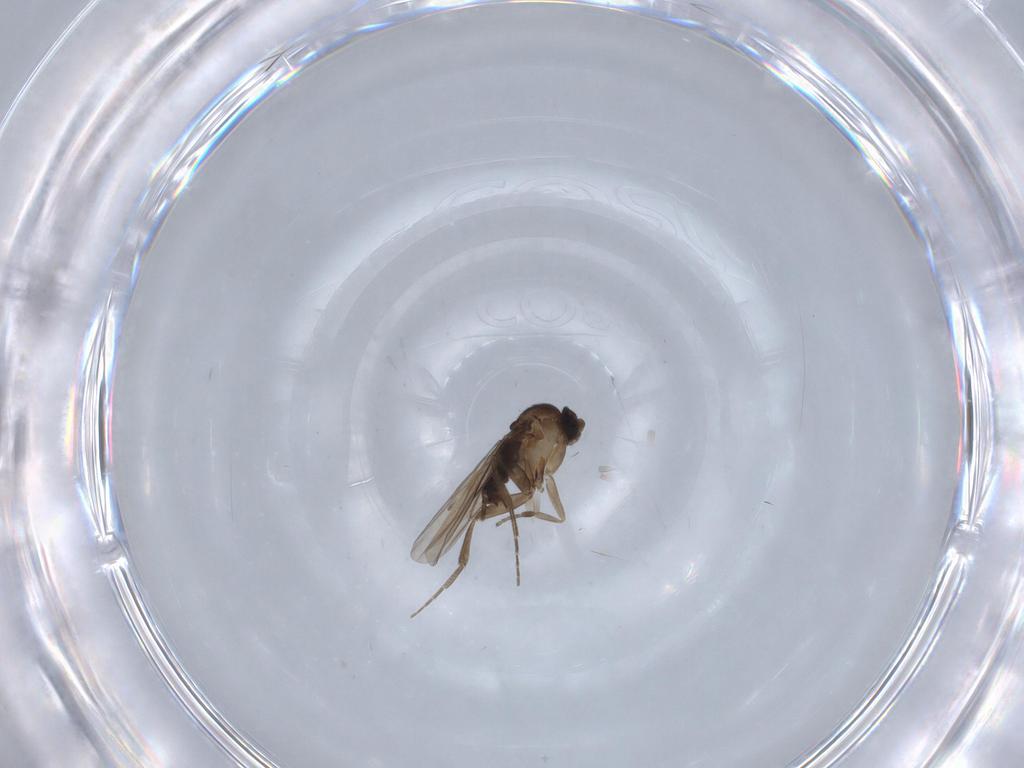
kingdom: Animalia
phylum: Arthropoda
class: Insecta
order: Diptera
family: Phoridae
